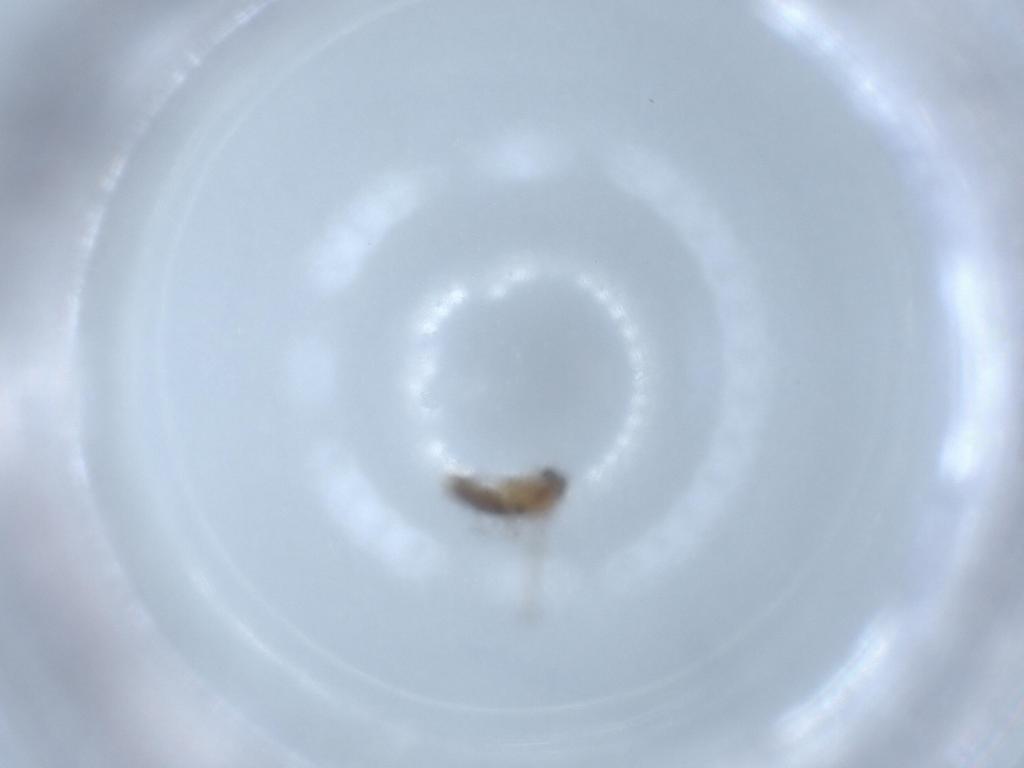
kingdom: Animalia
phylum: Arthropoda
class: Insecta
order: Diptera
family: Chironomidae
